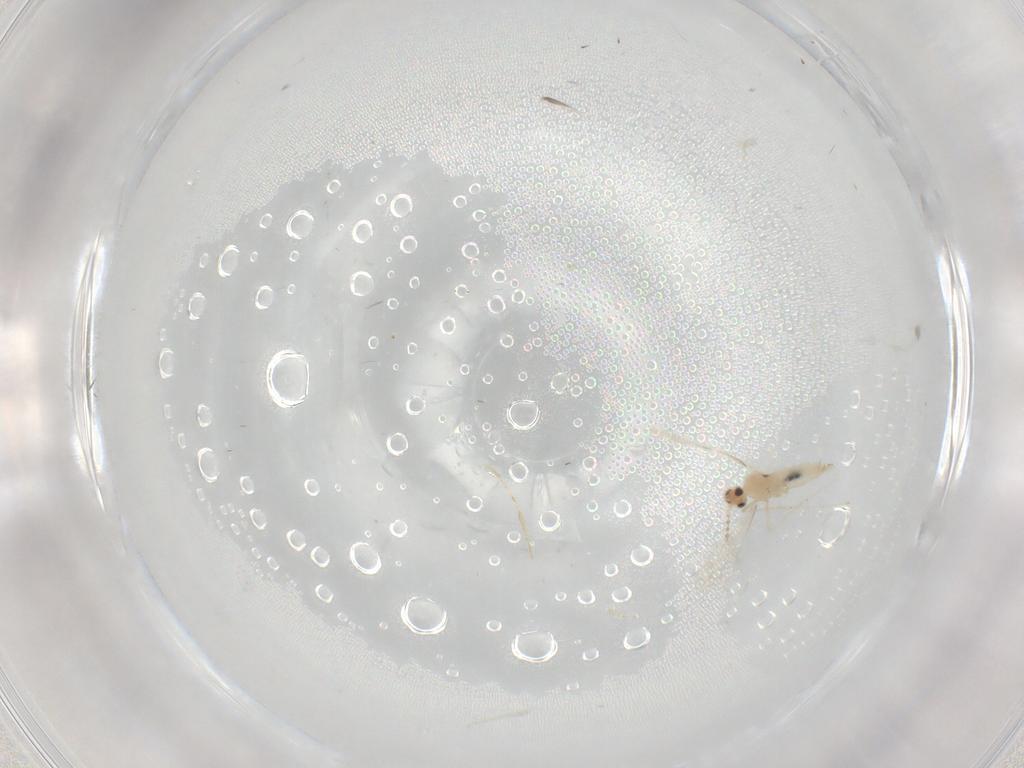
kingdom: Animalia
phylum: Arthropoda
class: Insecta
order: Diptera
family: Cecidomyiidae
